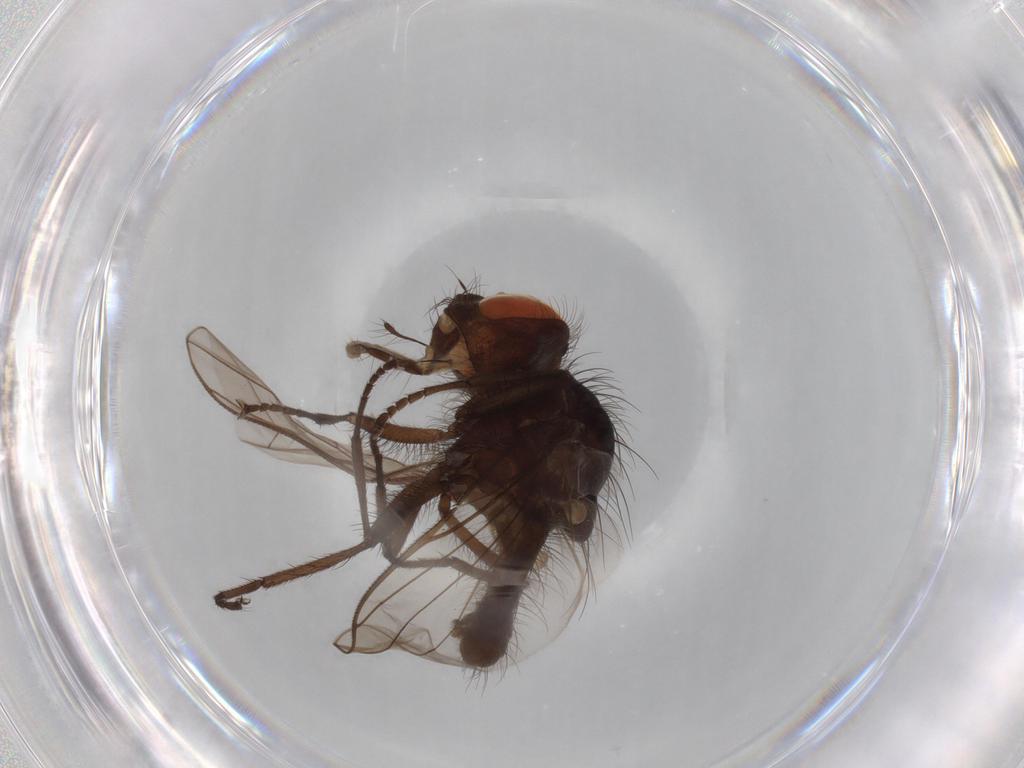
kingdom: Animalia
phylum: Arthropoda
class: Insecta
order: Diptera
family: Anthomyiidae
